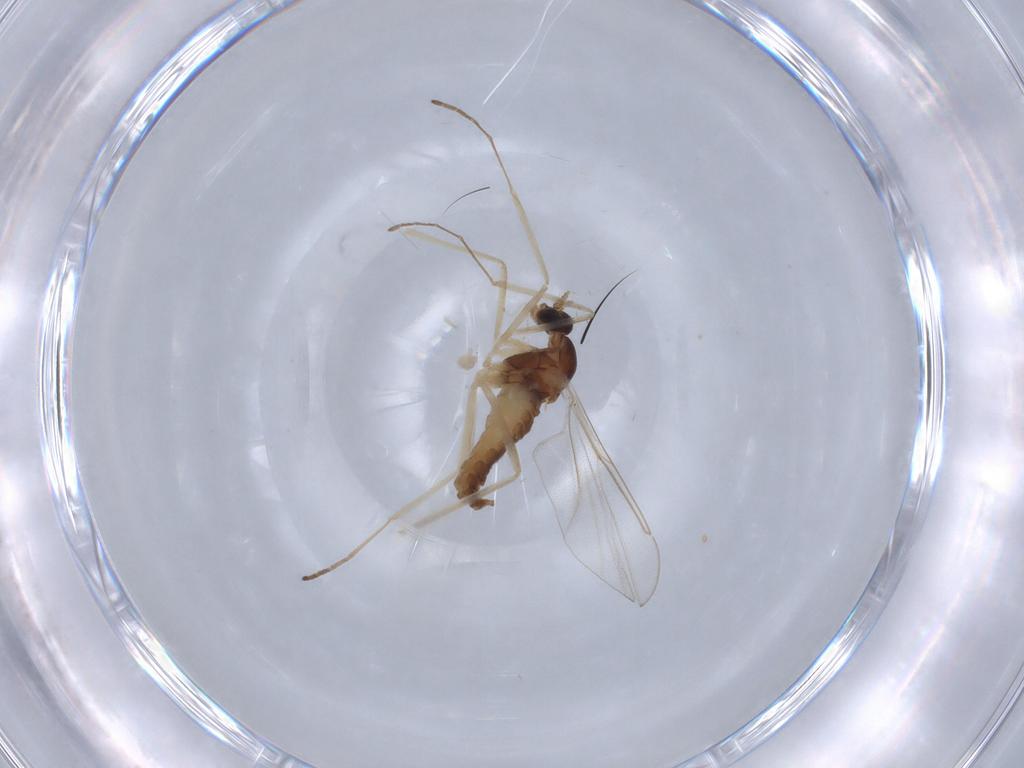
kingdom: Animalia
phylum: Arthropoda
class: Insecta
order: Diptera
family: Cecidomyiidae
